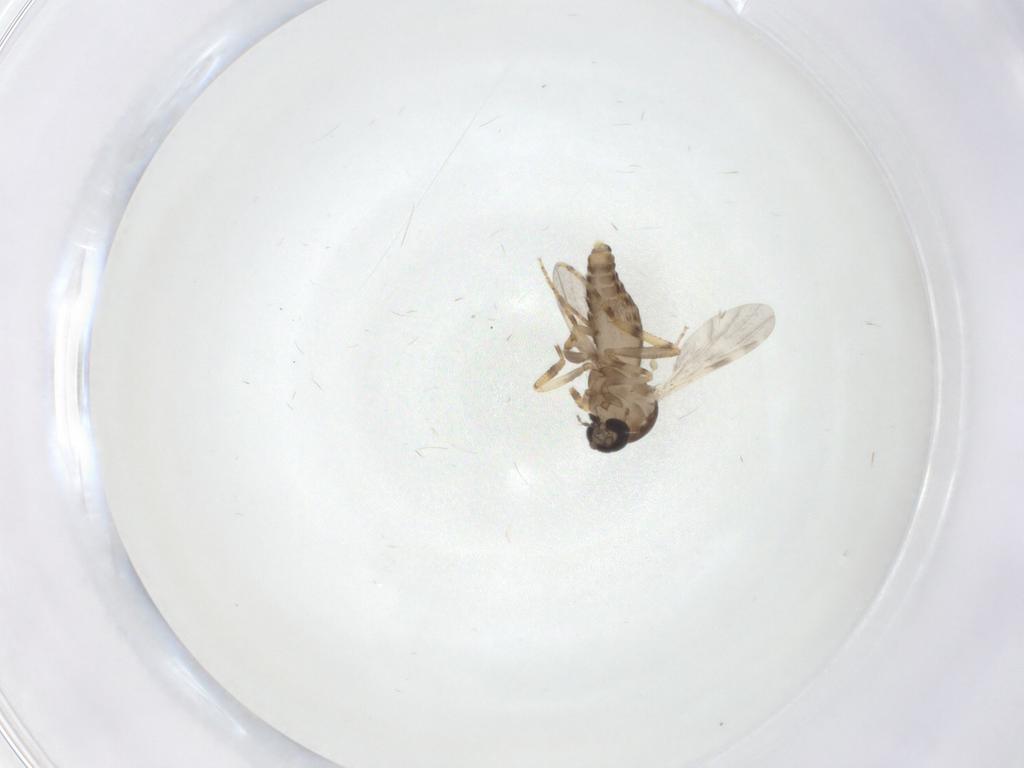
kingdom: Animalia
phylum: Arthropoda
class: Insecta
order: Diptera
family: Ceratopogonidae
